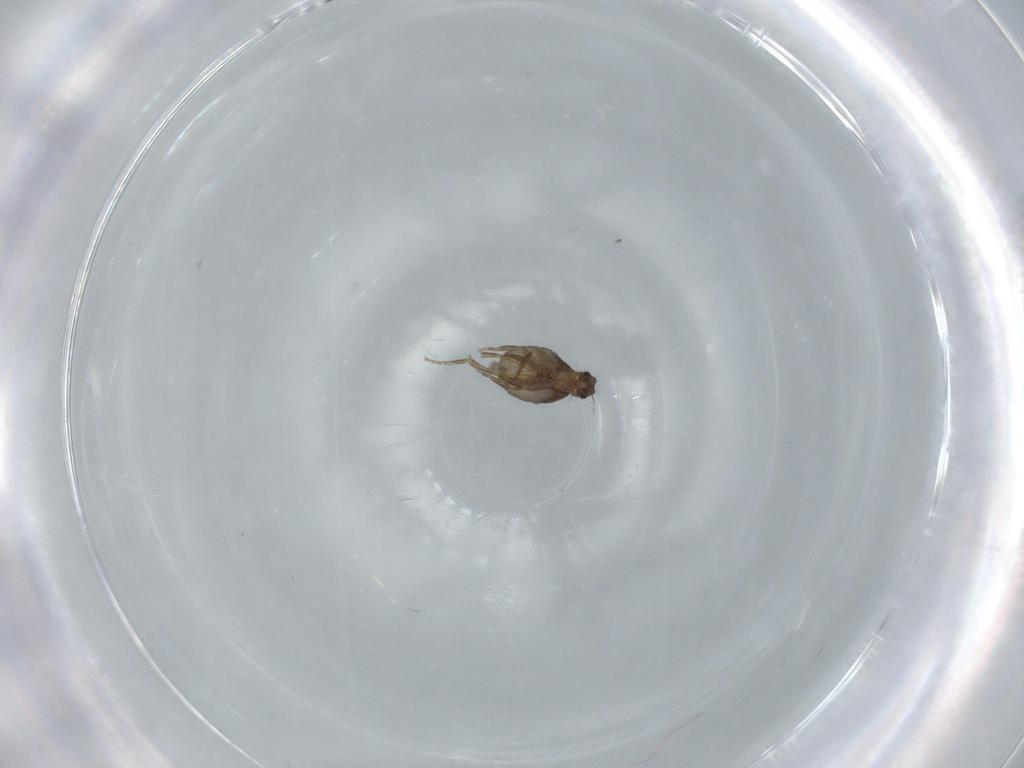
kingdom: Animalia
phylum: Arthropoda
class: Insecta
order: Diptera
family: Phoridae
